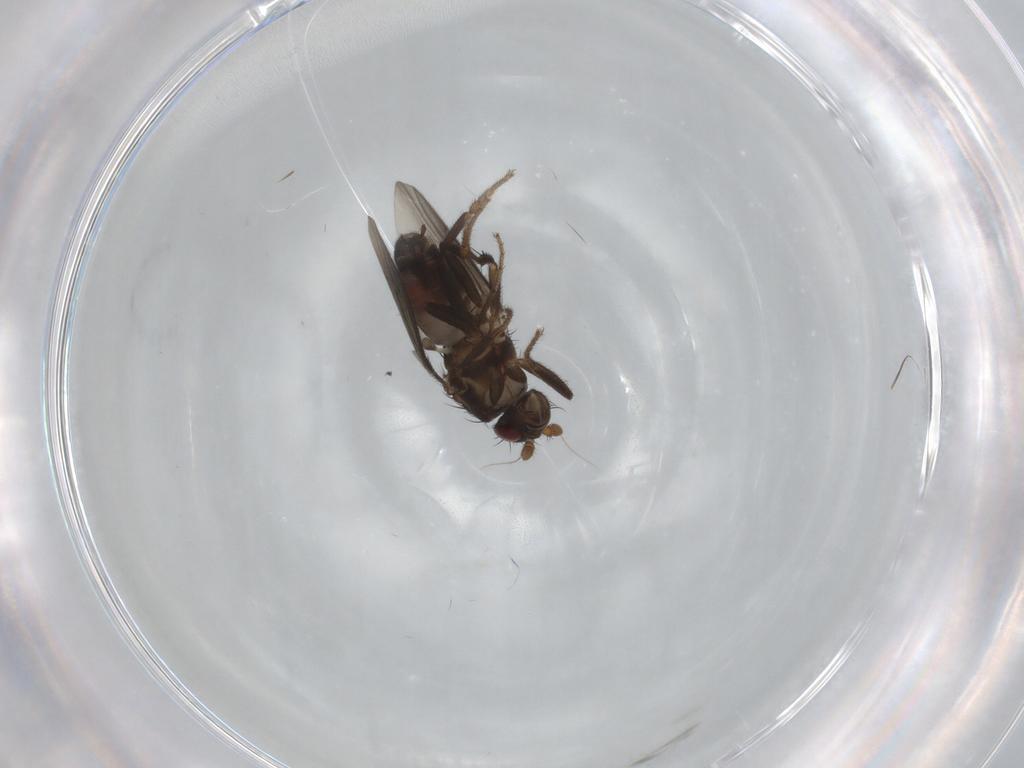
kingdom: Animalia
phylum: Arthropoda
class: Insecta
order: Diptera
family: Sphaeroceridae
